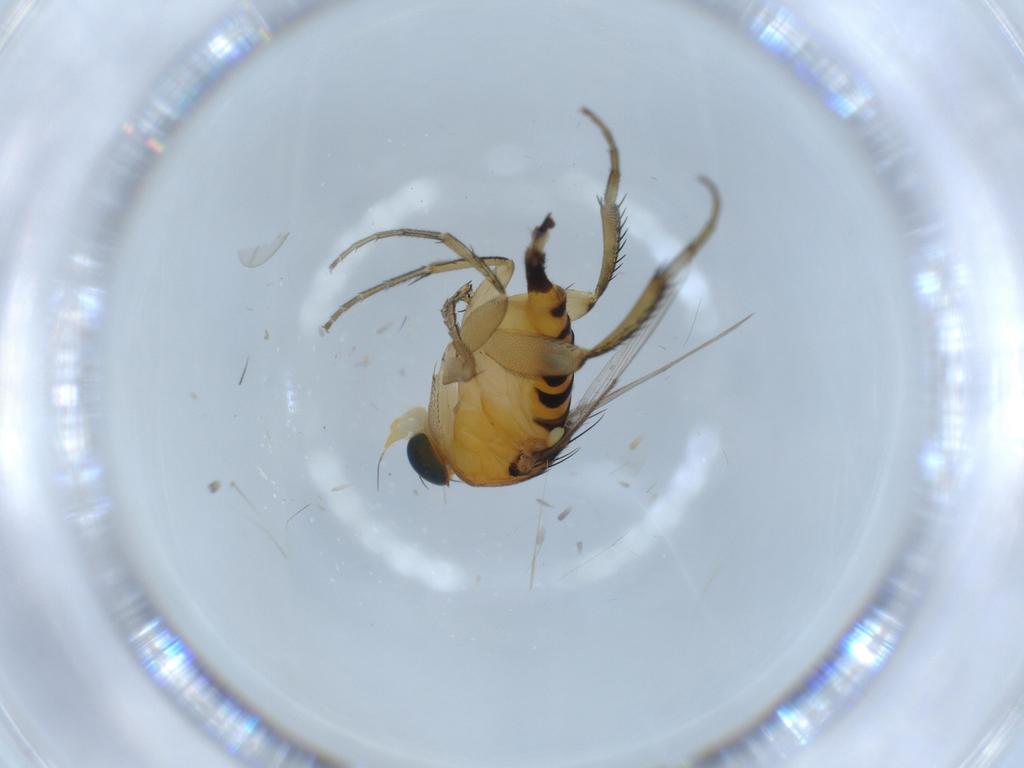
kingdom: Animalia
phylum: Arthropoda
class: Insecta
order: Diptera
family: Phoridae
